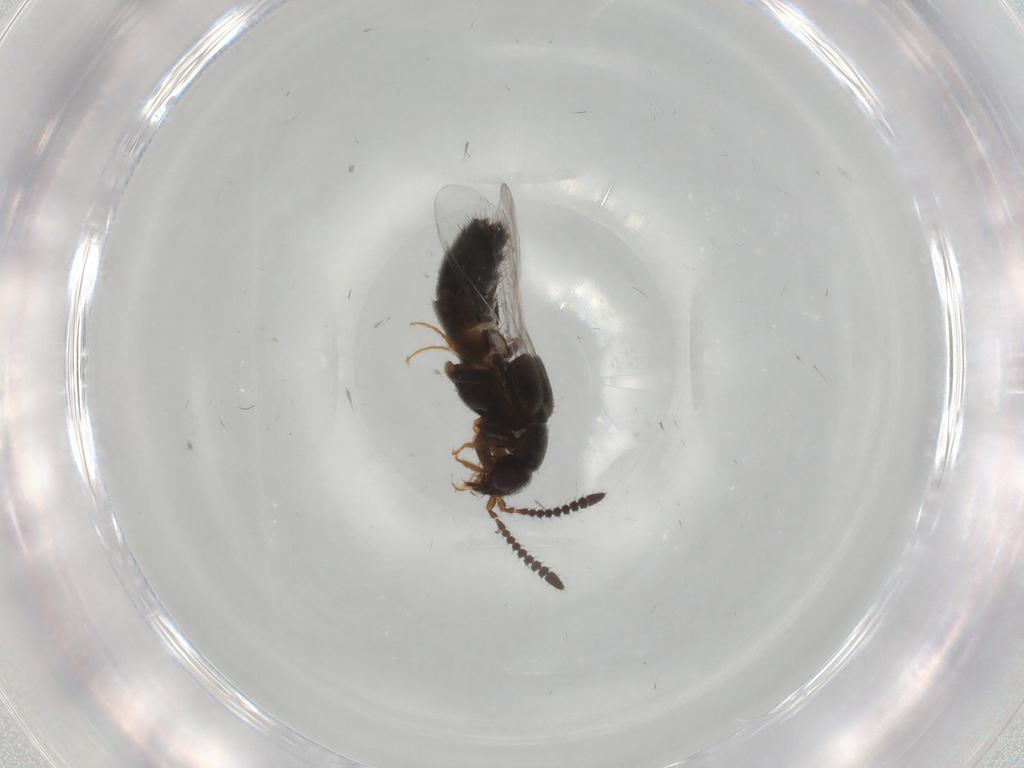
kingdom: Animalia
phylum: Arthropoda
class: Insecta
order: Coleoptera
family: Staphylinidae
